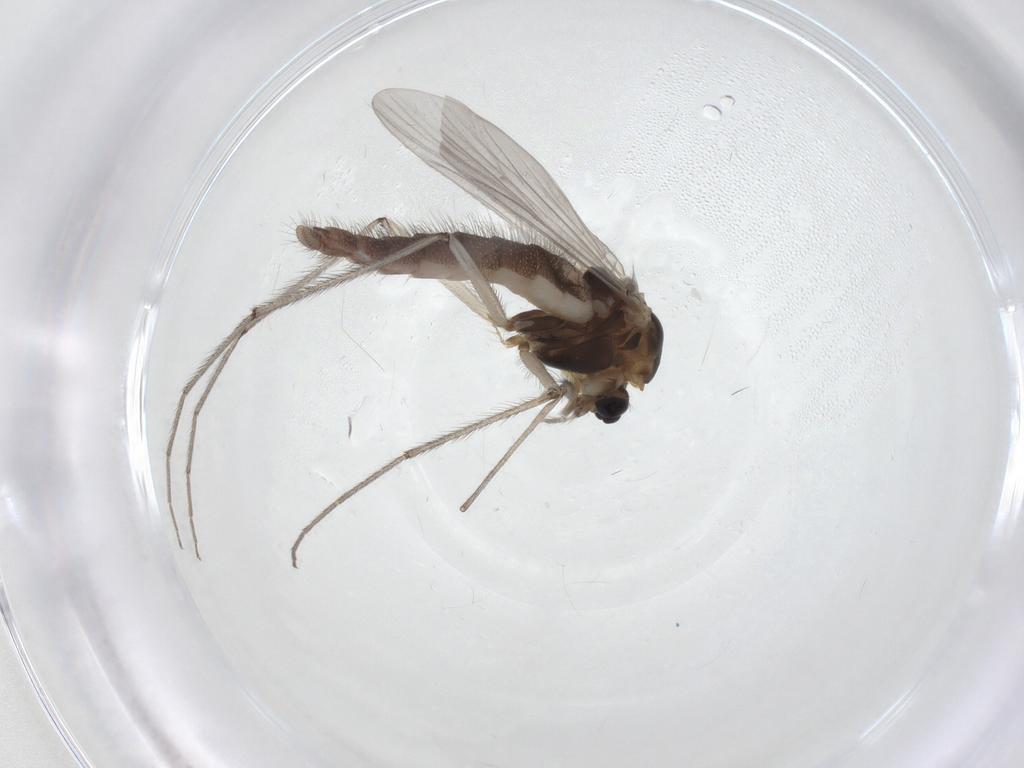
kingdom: Animalia
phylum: Arthropoda
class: Insecta
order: Diptera
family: Chironomidae
